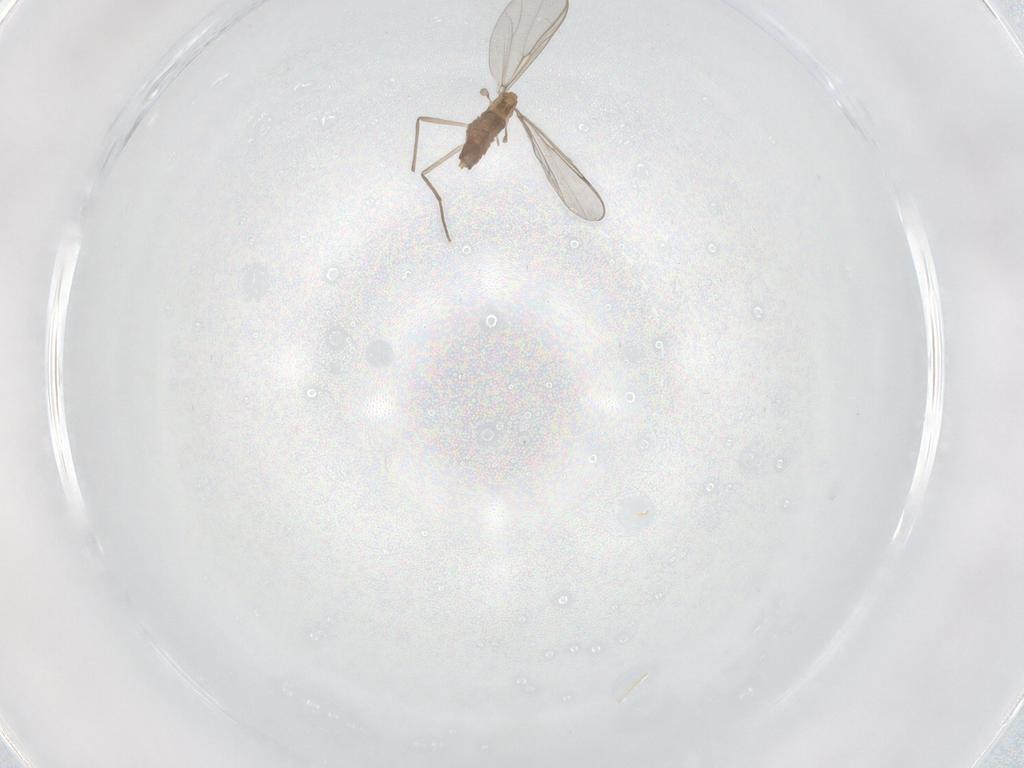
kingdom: Animalia
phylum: Arthropoda
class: Insecta
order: Diptera
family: Chironomidae
